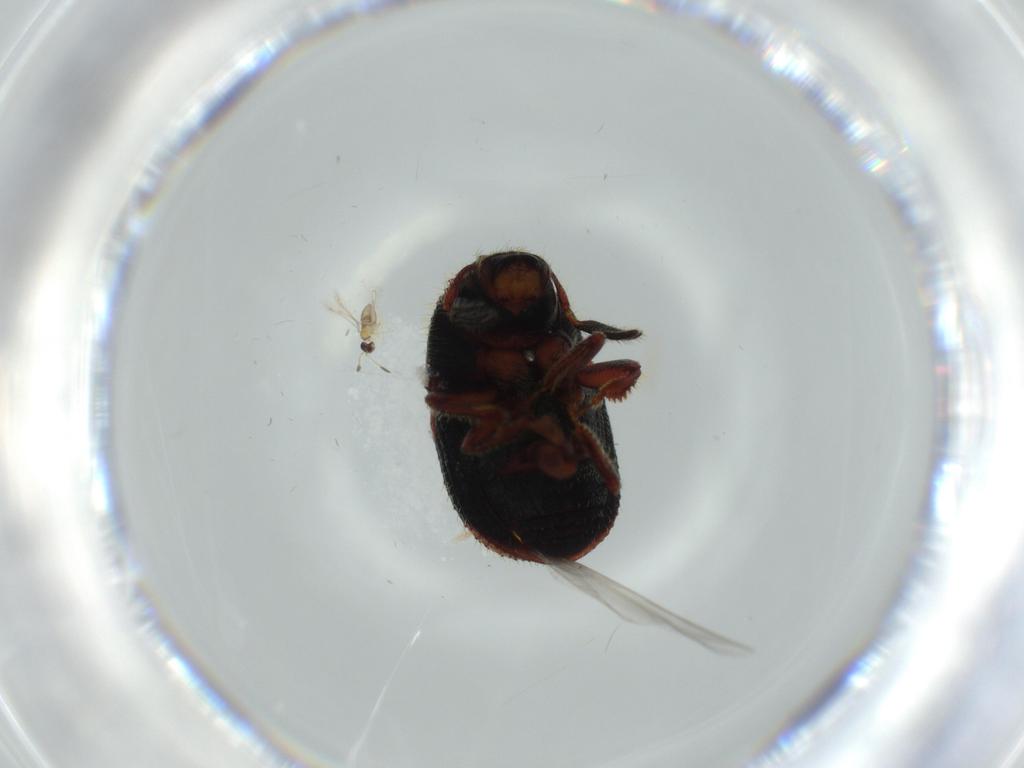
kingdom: Animalia
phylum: Arthropoda
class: Insecta
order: Coleoptera
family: Curculionidae
